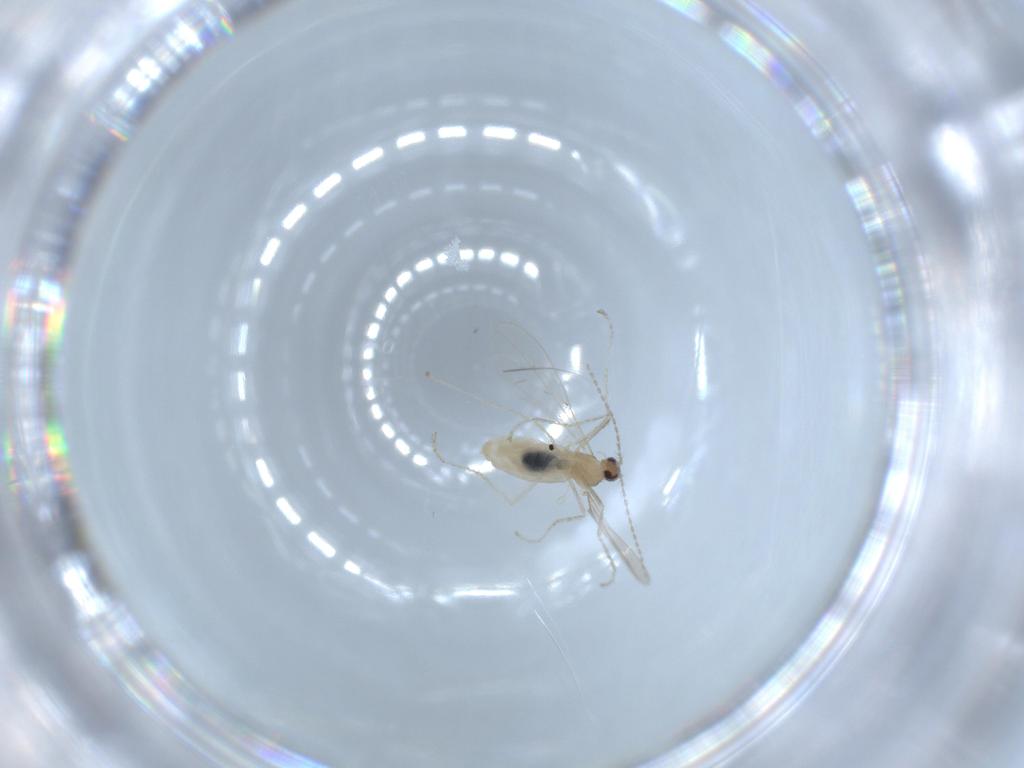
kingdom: Animalia
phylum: Arthropoda
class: Insecta
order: Diptera
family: Cecidomyiidae
